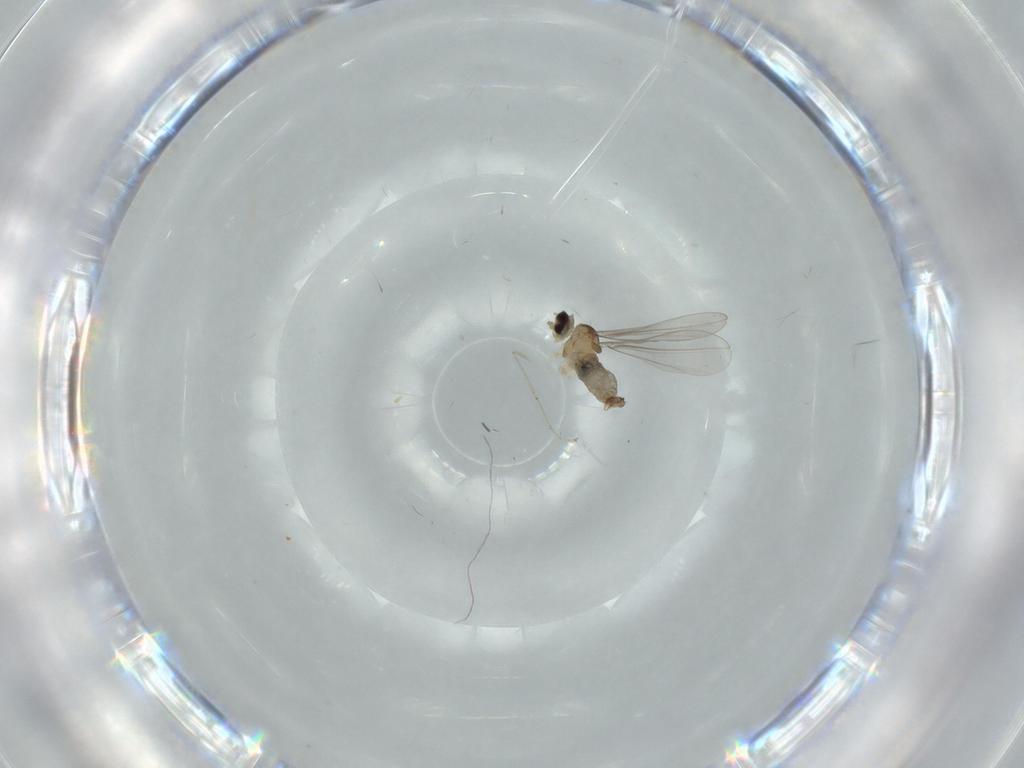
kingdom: Animalia
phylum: Arthropoda
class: Insecta
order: Diptera
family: Cecidomyiidae
